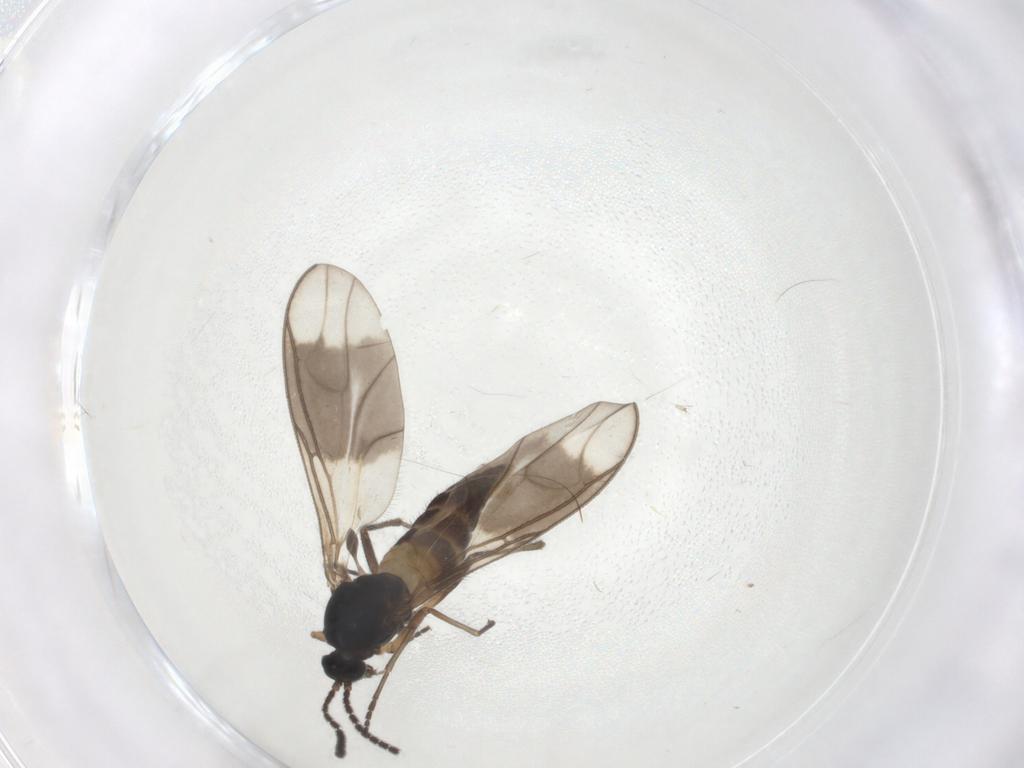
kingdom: Animalia
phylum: Arthropoda
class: Insecta
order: Diptera
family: Sciaridae
